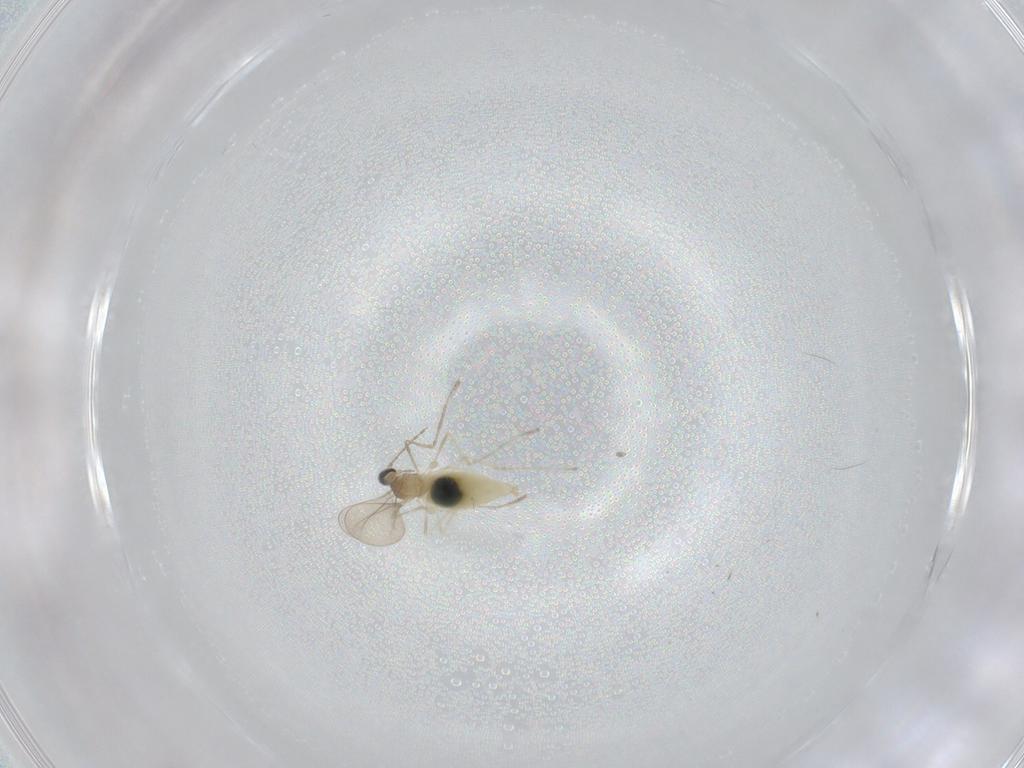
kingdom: Animalia
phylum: Arthropoda
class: Insecta
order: Diptera
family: Cecidomyiidae
